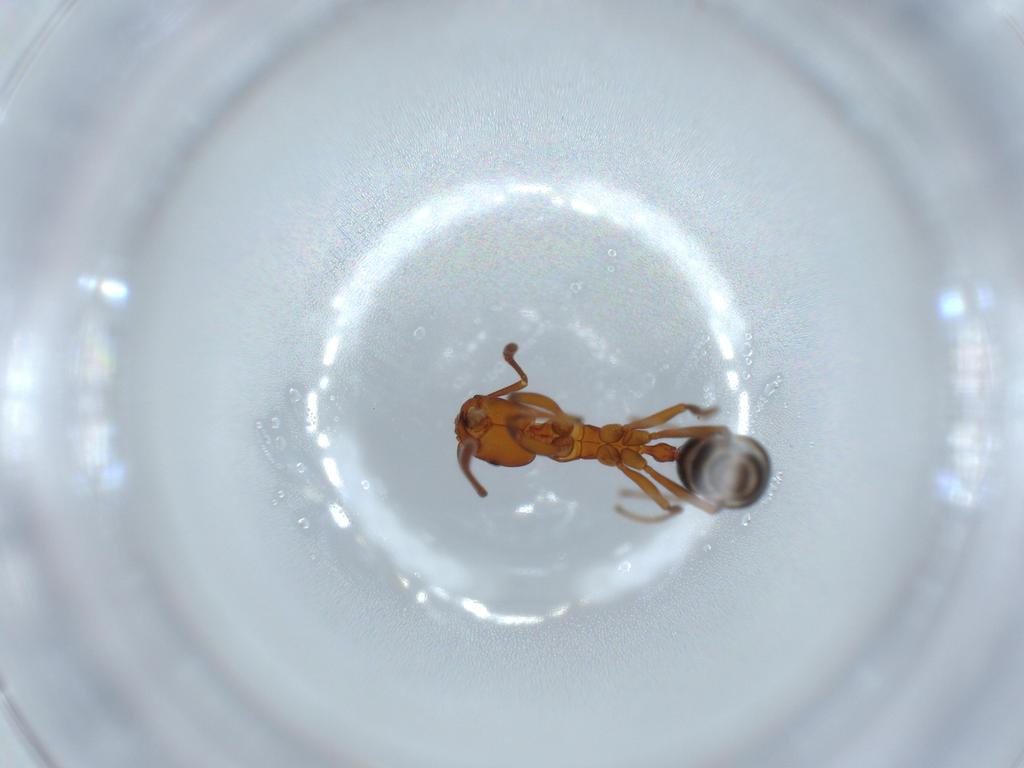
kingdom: Animalia
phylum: Arthropoda
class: Insecta
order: Hymenoptera
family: Formicidae
